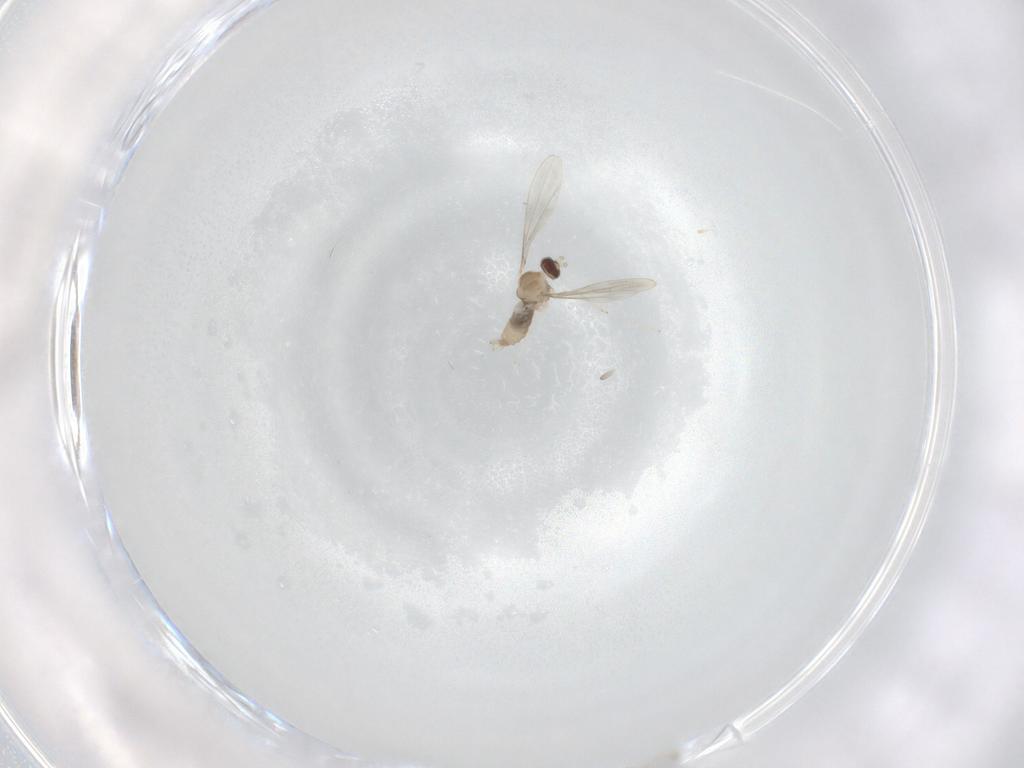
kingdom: Animalia
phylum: Arthropoda
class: Insecta
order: Diptera
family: Cecidomyiidae
